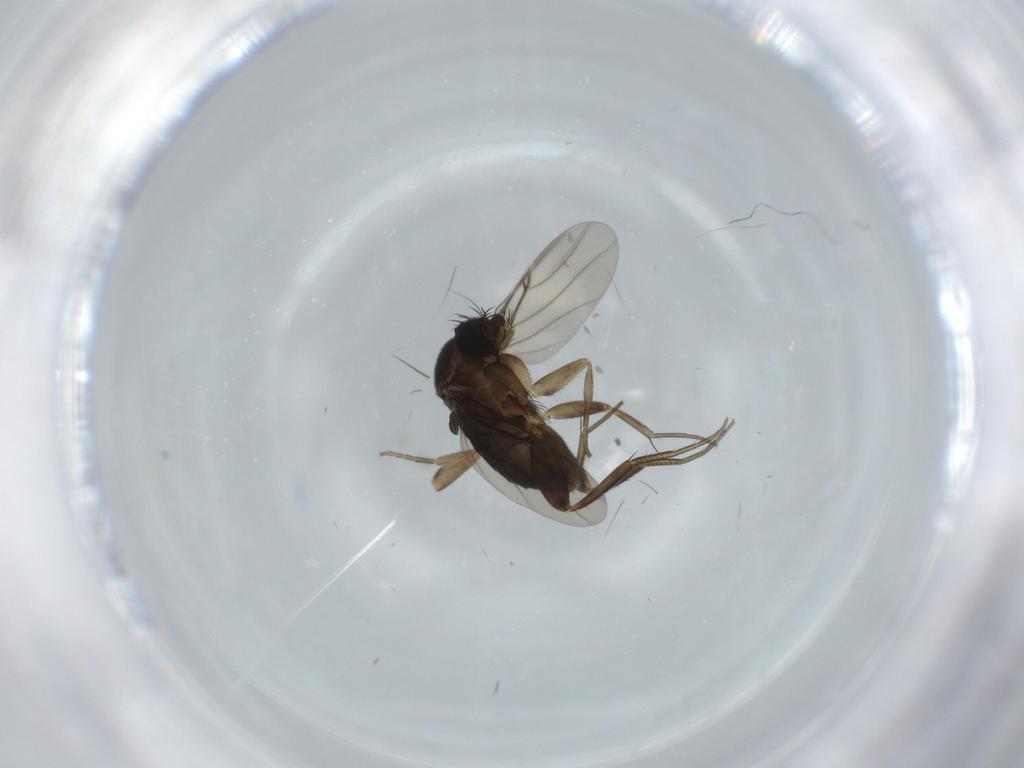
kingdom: Animalia
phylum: Arthropoda
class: Insecta
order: Diptera
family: Phoridae
